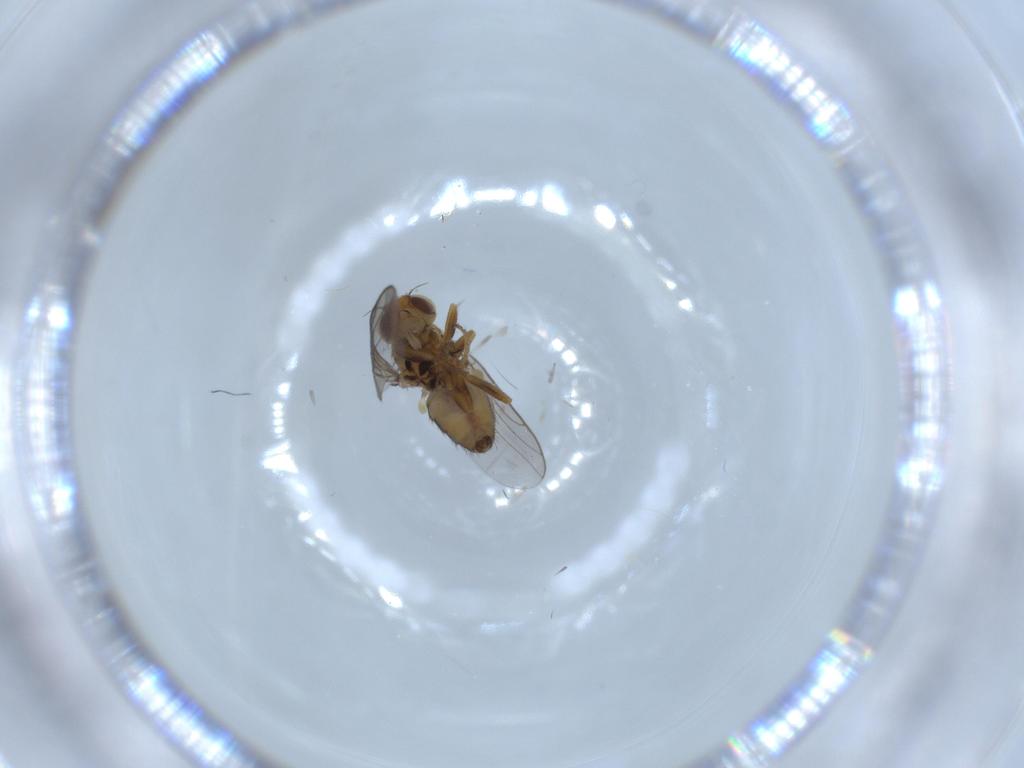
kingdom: Animalia
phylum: Arthropoda
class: Insecta
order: Diptera
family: Chloropidae
